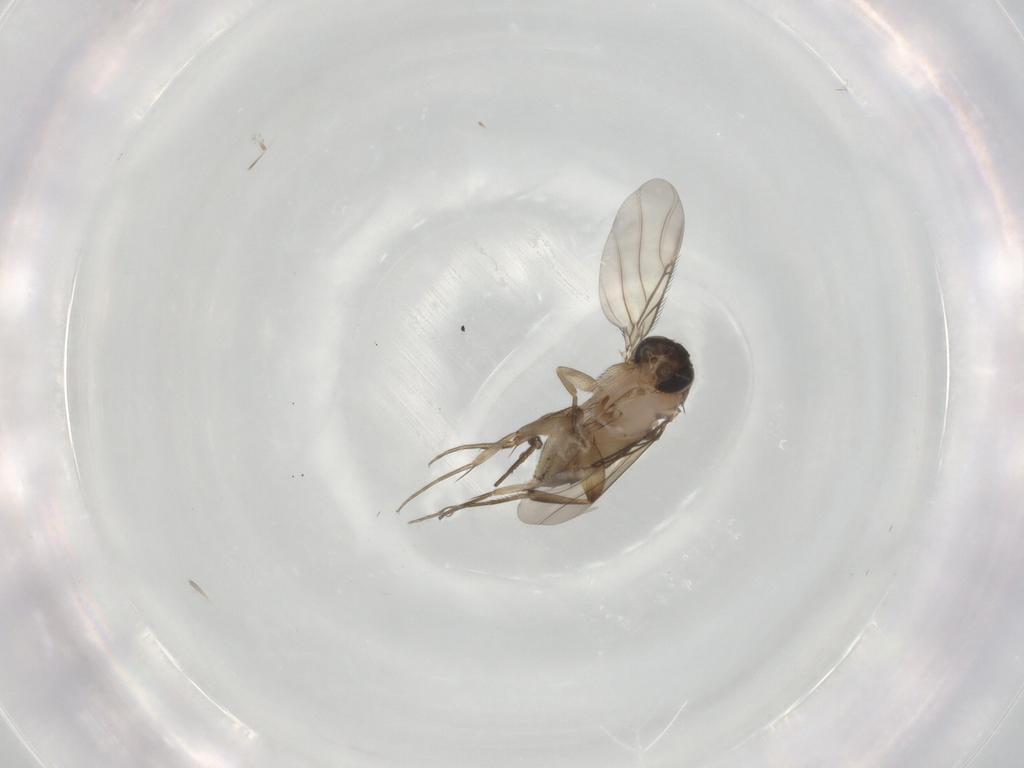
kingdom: Animalia
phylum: Arthropoda
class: Insecta
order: Diptera
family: Phoridae
